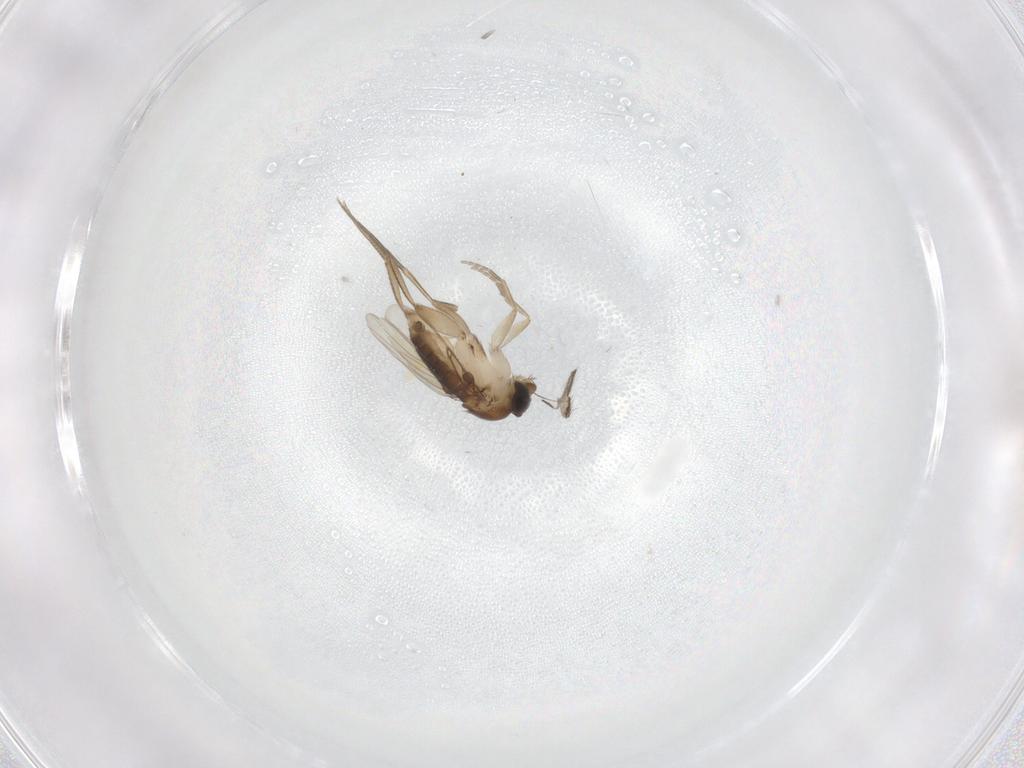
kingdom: Animalia
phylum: Arthropoda
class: Insecta
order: Diptera
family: Phoridae
